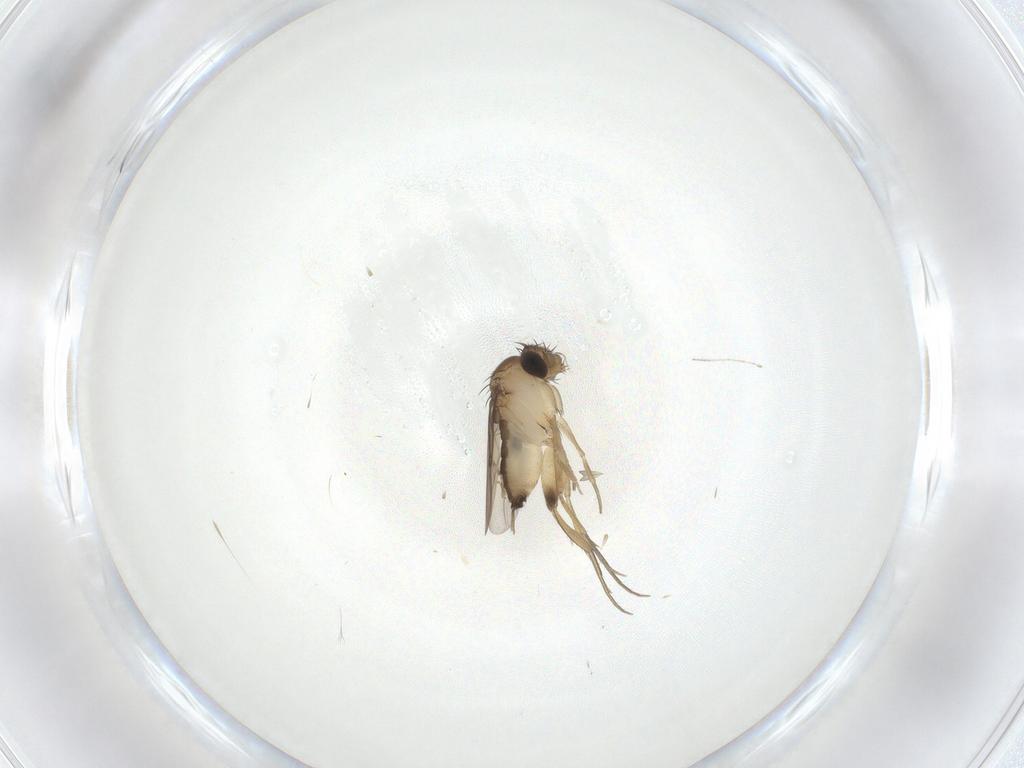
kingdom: Animalia
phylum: Arthropoda
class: Insecta
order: Diptera
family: Phoridae
